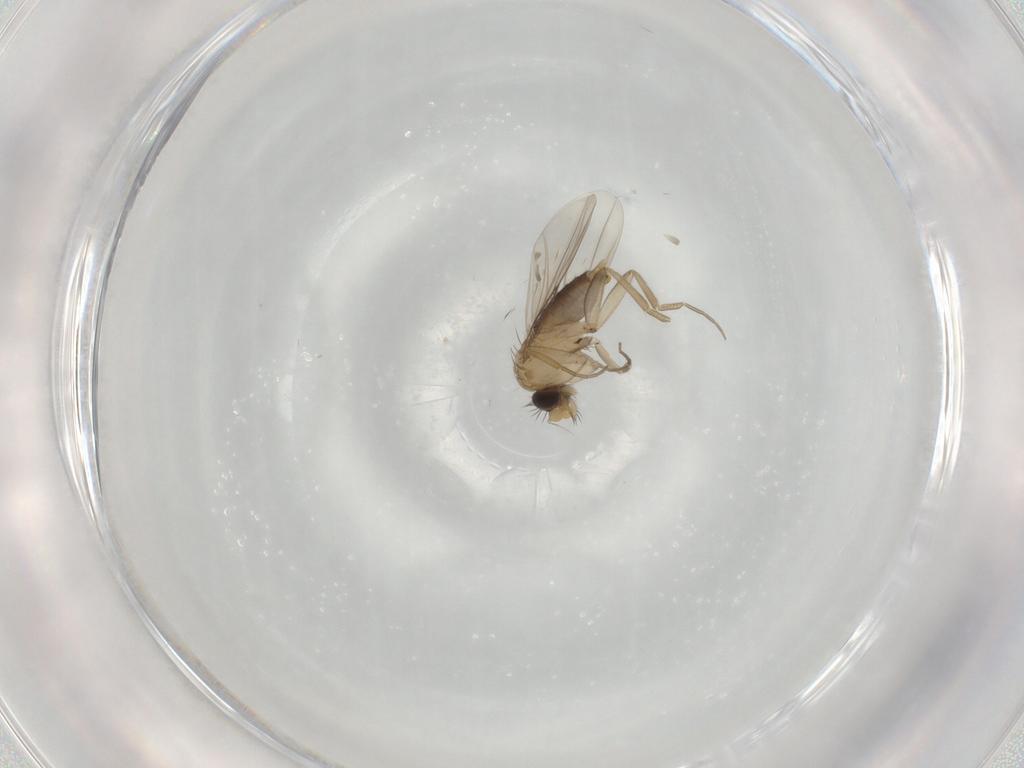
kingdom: Animalia
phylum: Arthropoda
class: Insecta
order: Diptera
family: Phoridae
